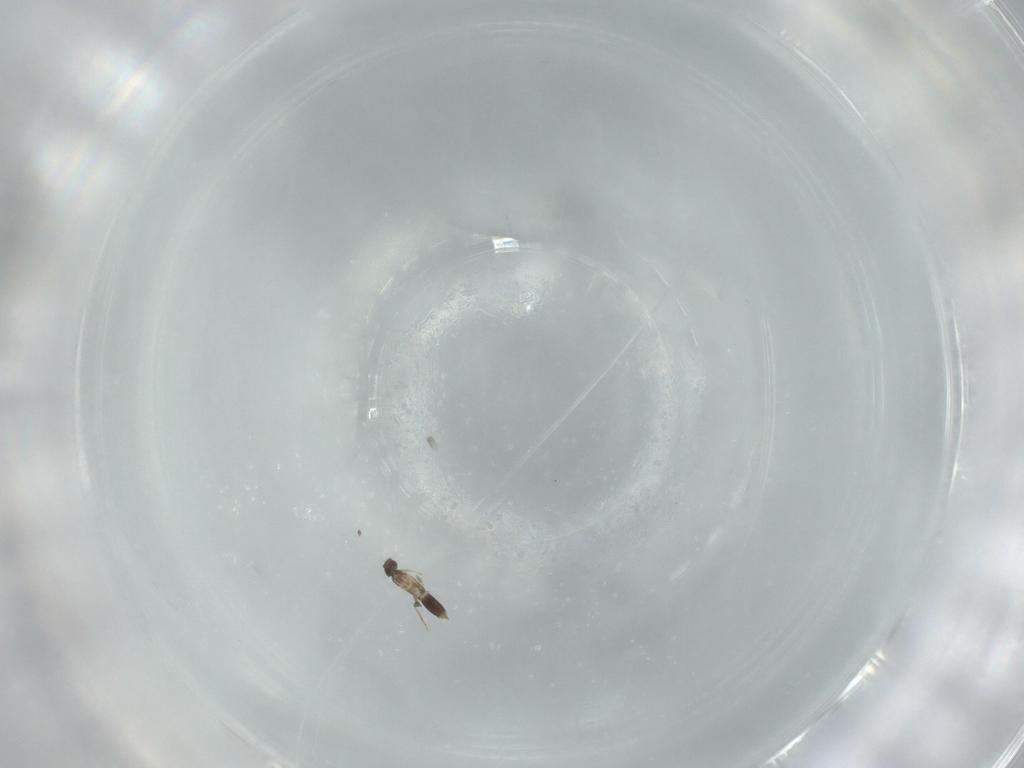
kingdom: Animalia
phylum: Arthropoda
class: Insecta
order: Hymenoptera
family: Mymaridae
